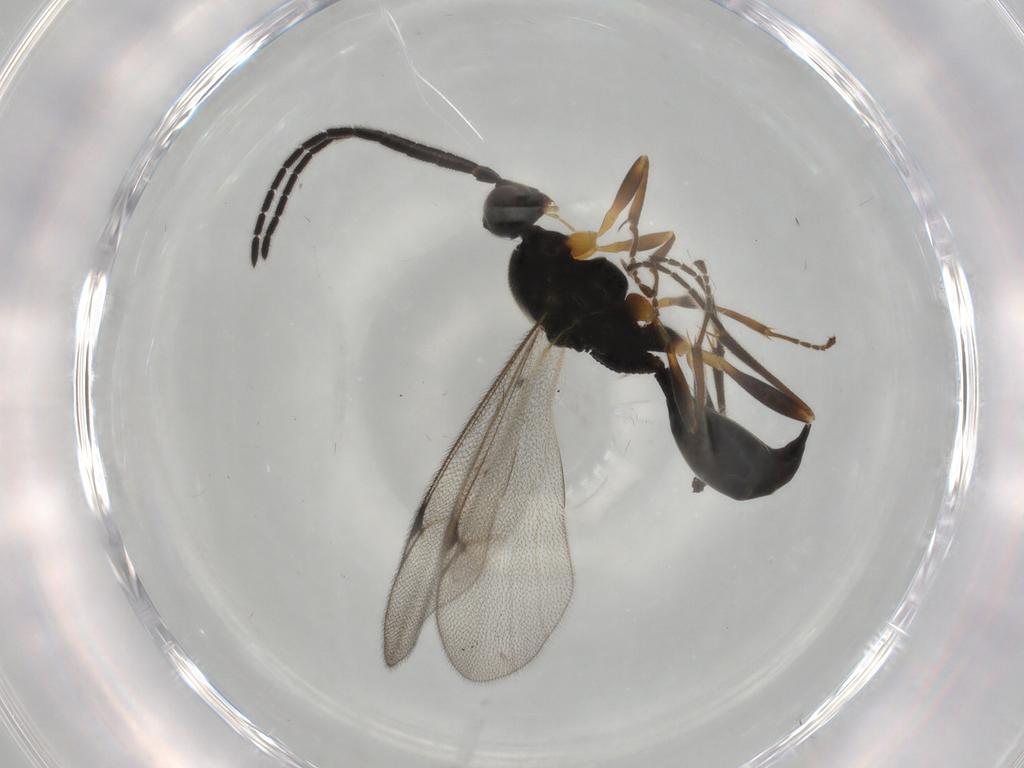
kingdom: Animalia
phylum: Arthropoda
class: Insecta
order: Hymenoptera
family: Proctotrupidae
